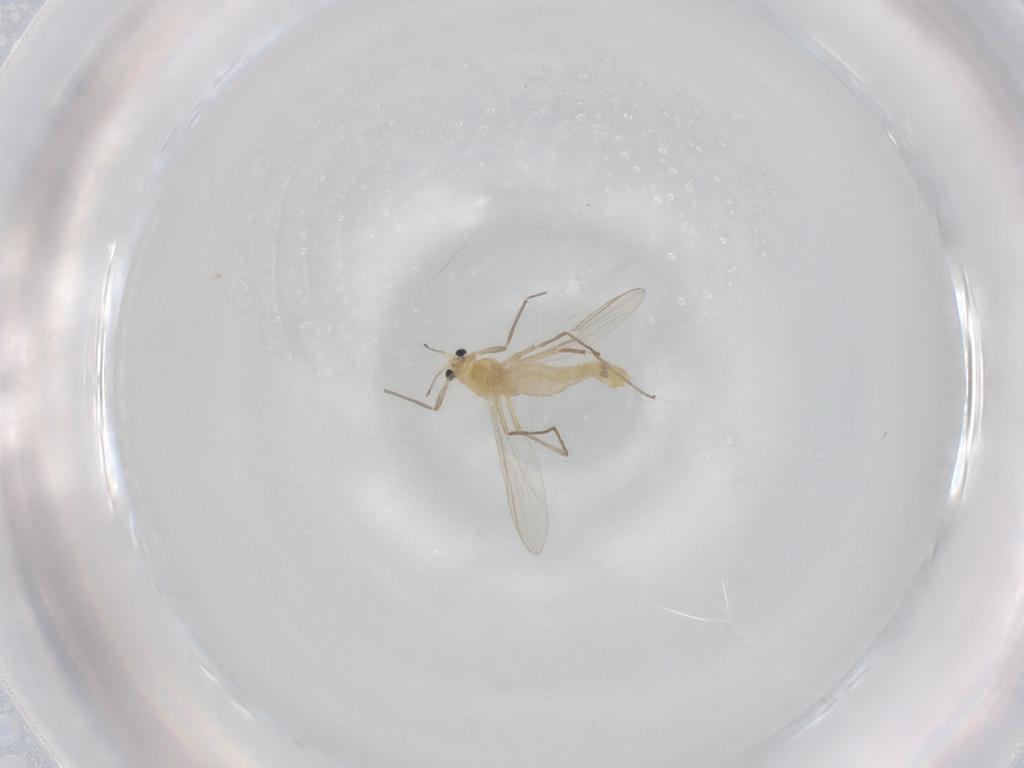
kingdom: Animalia
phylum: Arthropoda
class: Insecta
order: Diptera
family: Chironomidae
